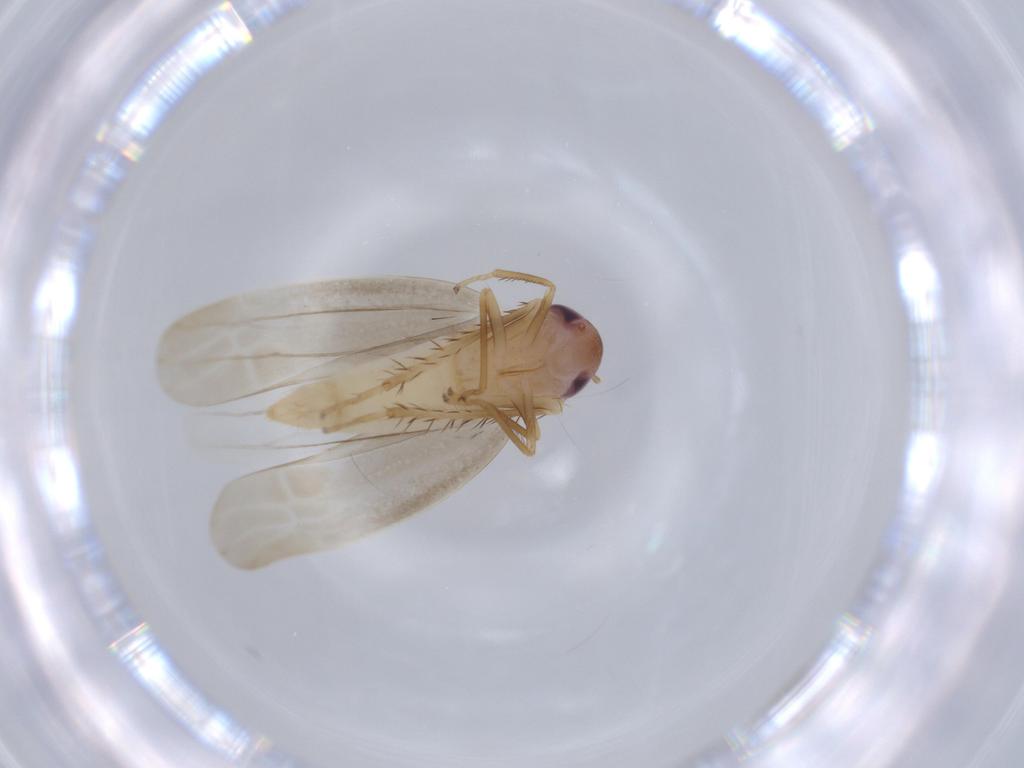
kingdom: Animalia
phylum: Arthropoda
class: Insecta
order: Hemiptera
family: Cicadellidae
